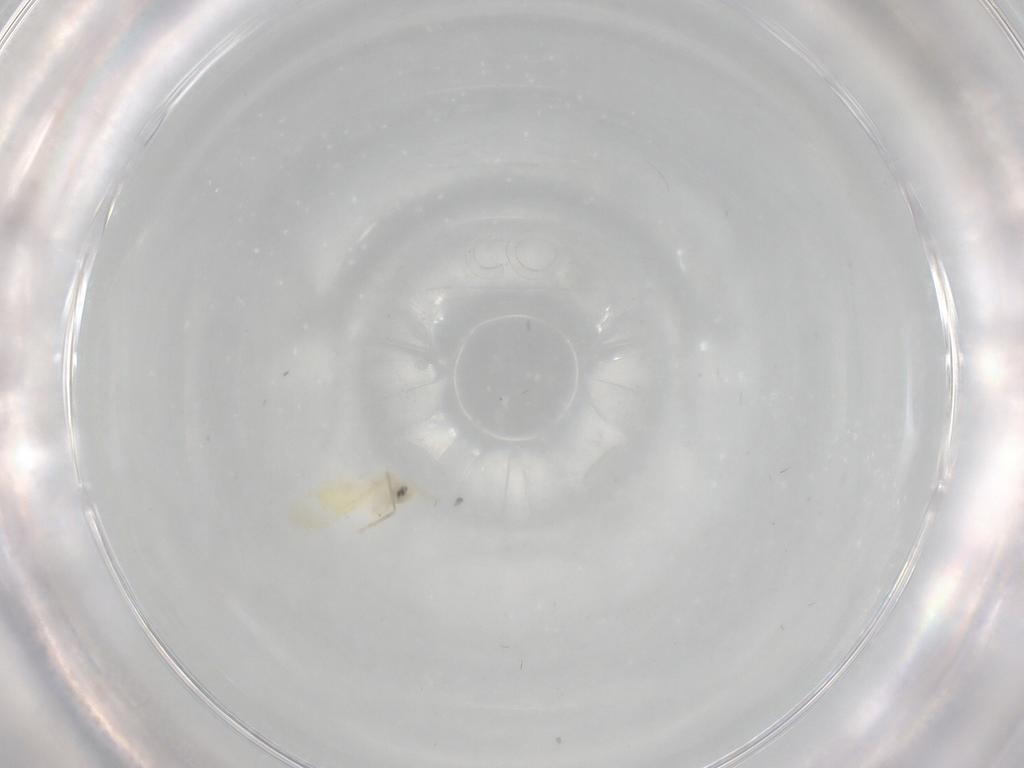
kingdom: Animalia
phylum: Arthropoda
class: Insecta
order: Hemiptera
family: Aleyrodidae
